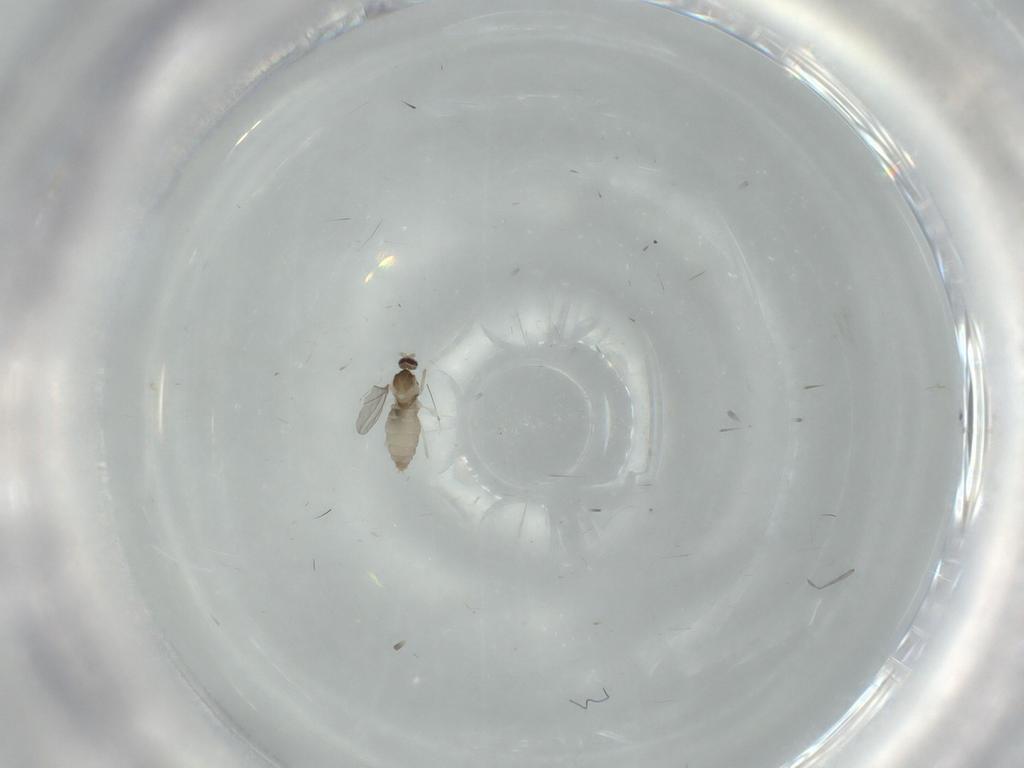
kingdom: Animalia
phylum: Arthropoda
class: Insecta
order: Diptera
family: Cecidomyiidae
